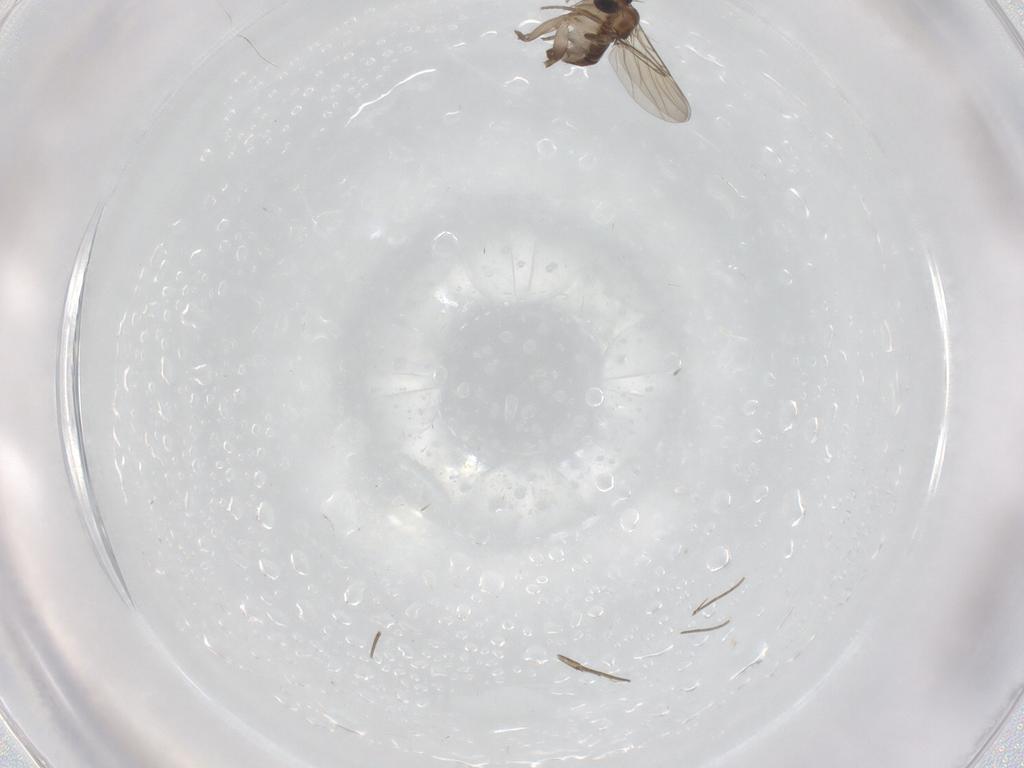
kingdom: Animalia
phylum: Arthropoda
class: Insecta
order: Diptera
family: Phoridae
